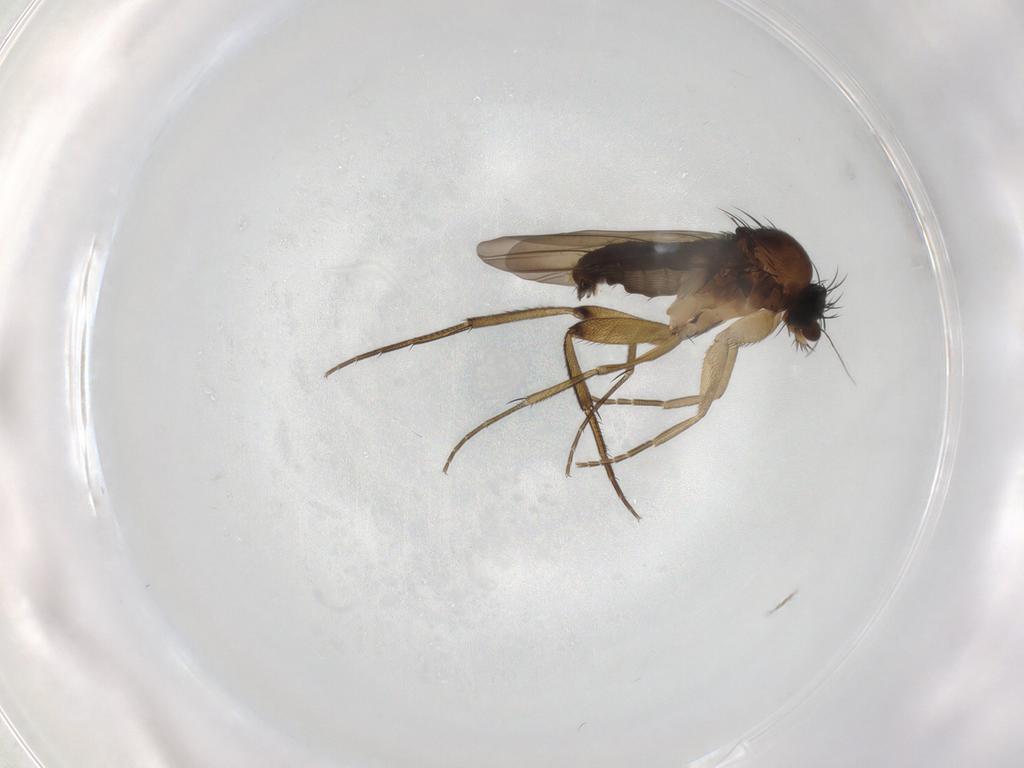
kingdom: Animalia
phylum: Arthropoda
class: Insecta
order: Diptera
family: Phoridae
